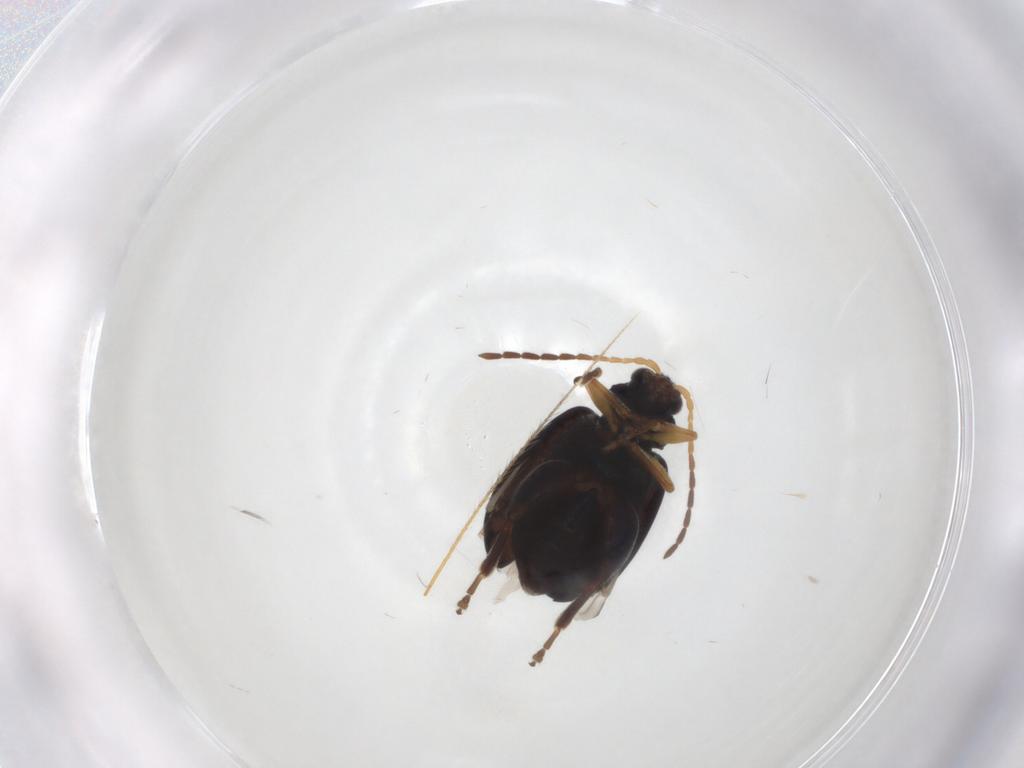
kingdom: Animalia
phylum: Arthropoda
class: Insecta
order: Coleoptera
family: Chrysomelidae
